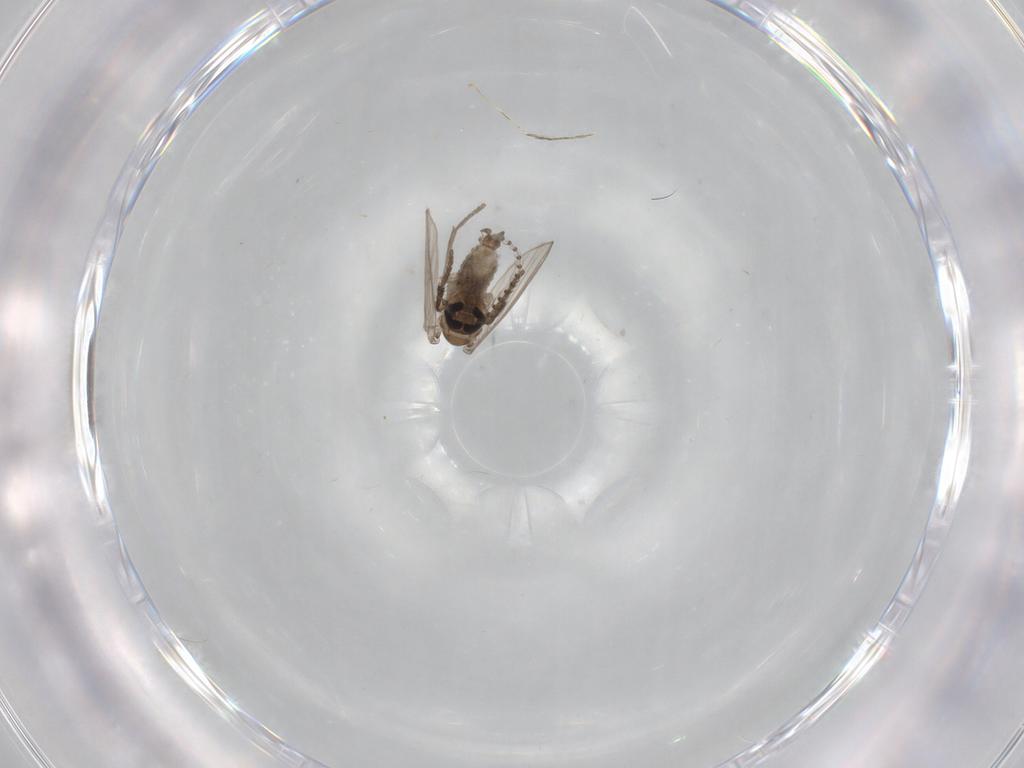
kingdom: Animalia
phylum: Arthropoda
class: Insecta
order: Diptera
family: Psychodidae
